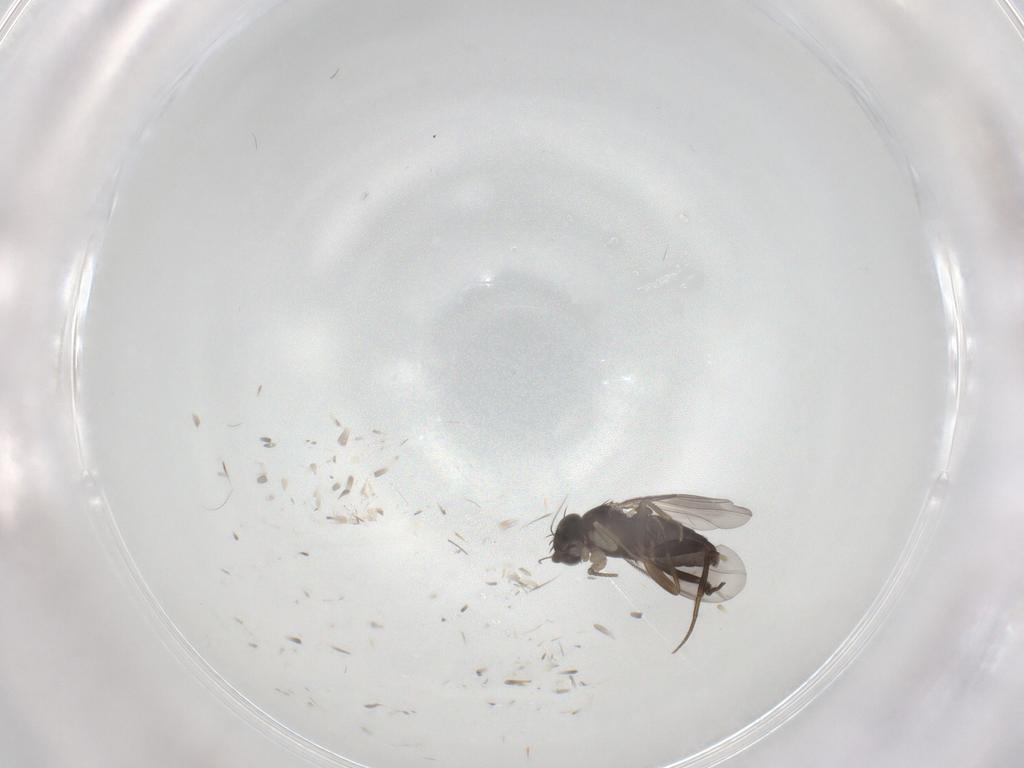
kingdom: Animalia
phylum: Arthropoda
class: Insecta
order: Diptera
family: Phoridae
